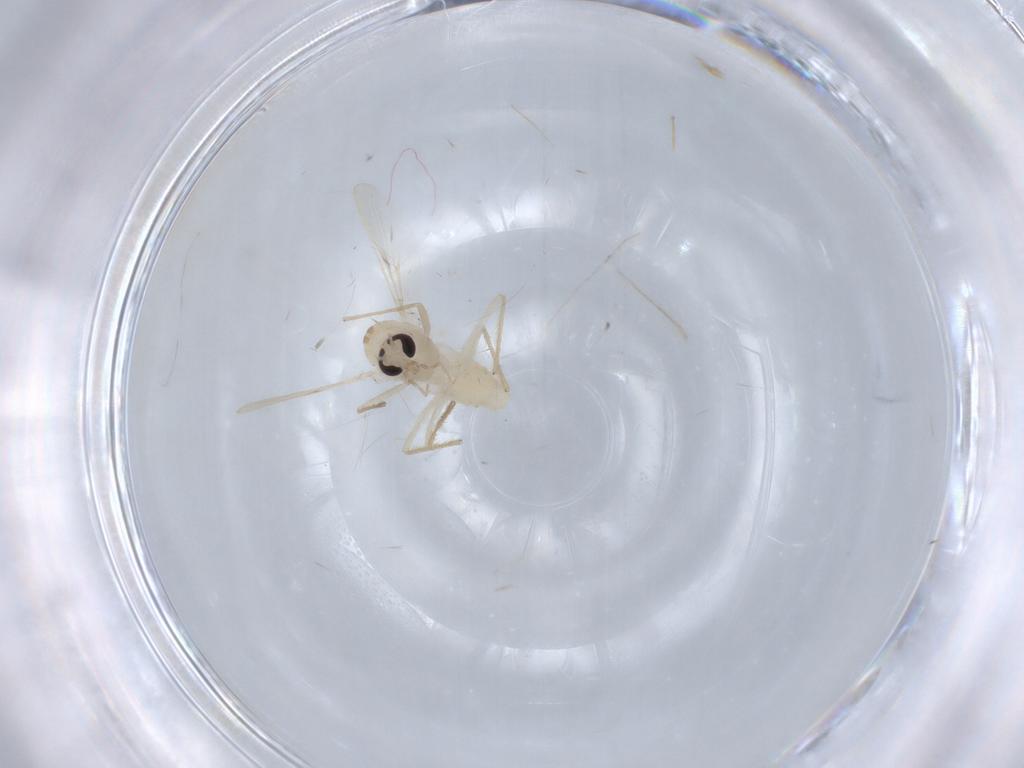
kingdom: Animalia
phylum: Arthropoda
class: Insecta
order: Diptera
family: Chironomidae
